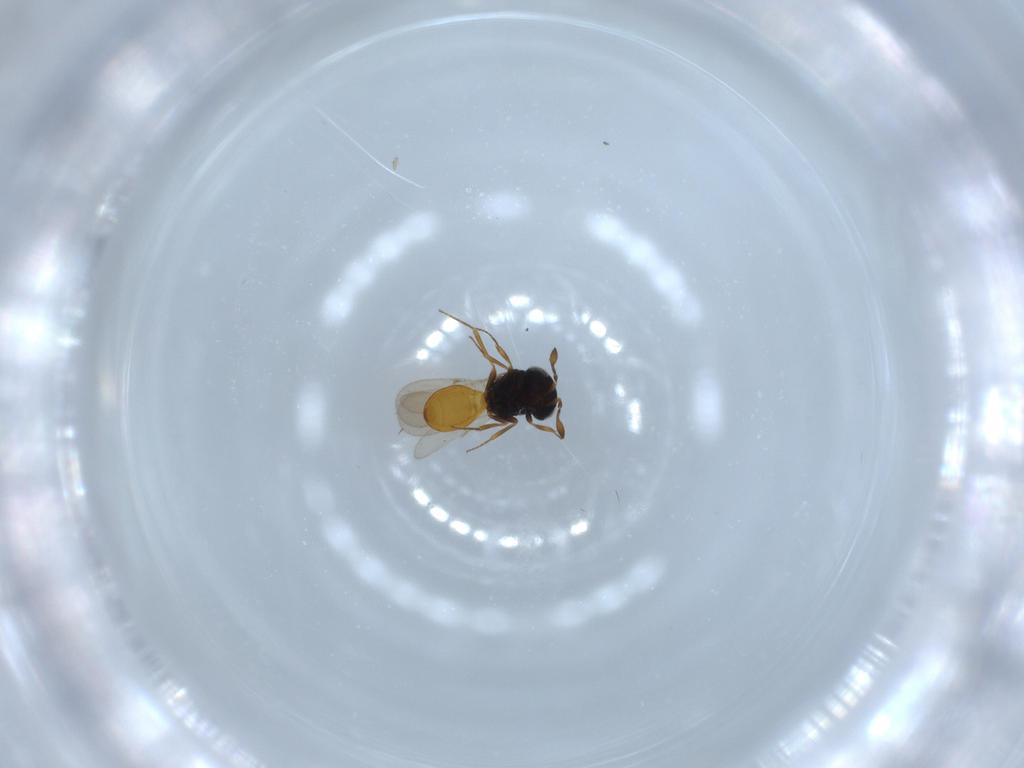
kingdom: Animalia
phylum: Arthropoda
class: Insecta
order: Hymenoptera
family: Scelionidae
